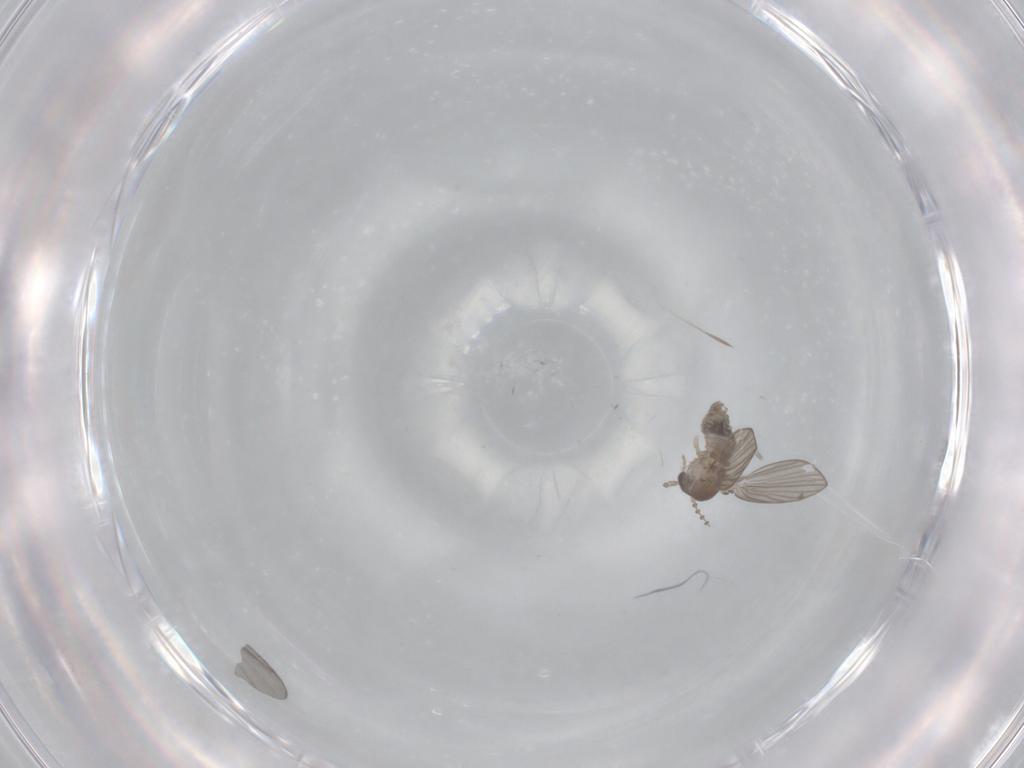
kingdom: Animalia
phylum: Arthropoda
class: Insecta
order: Diptera
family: Psychodidae
